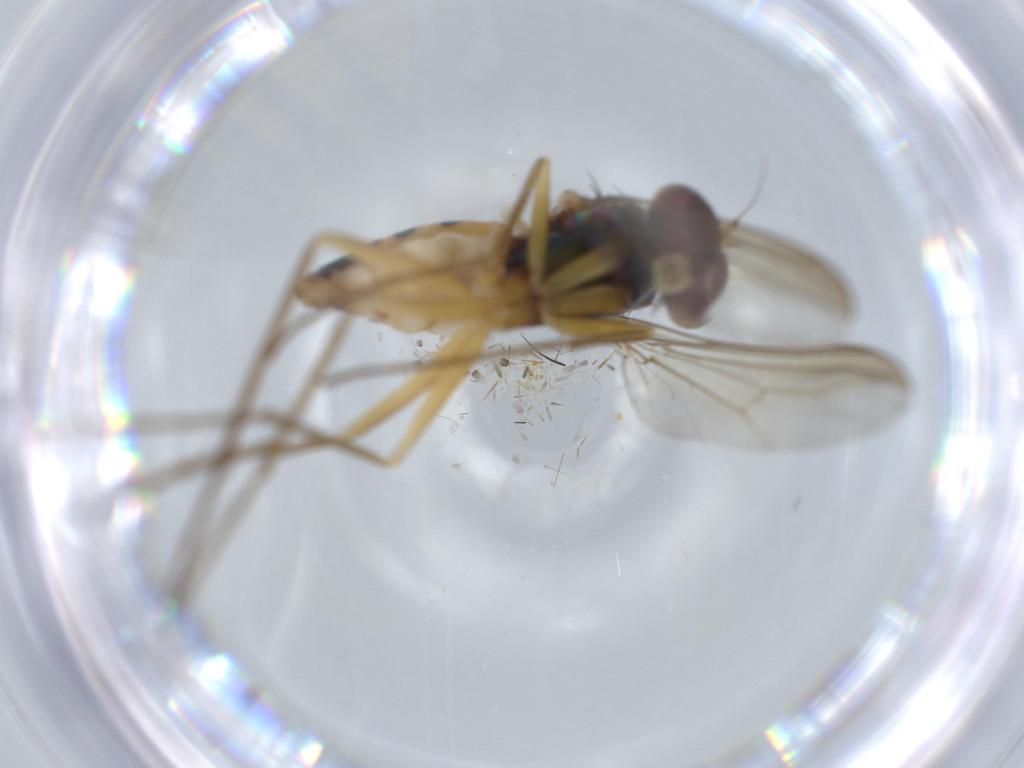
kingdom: Animalia
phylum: Arthropoda
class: Insecta
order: Diptera
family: Dolichopodidae
